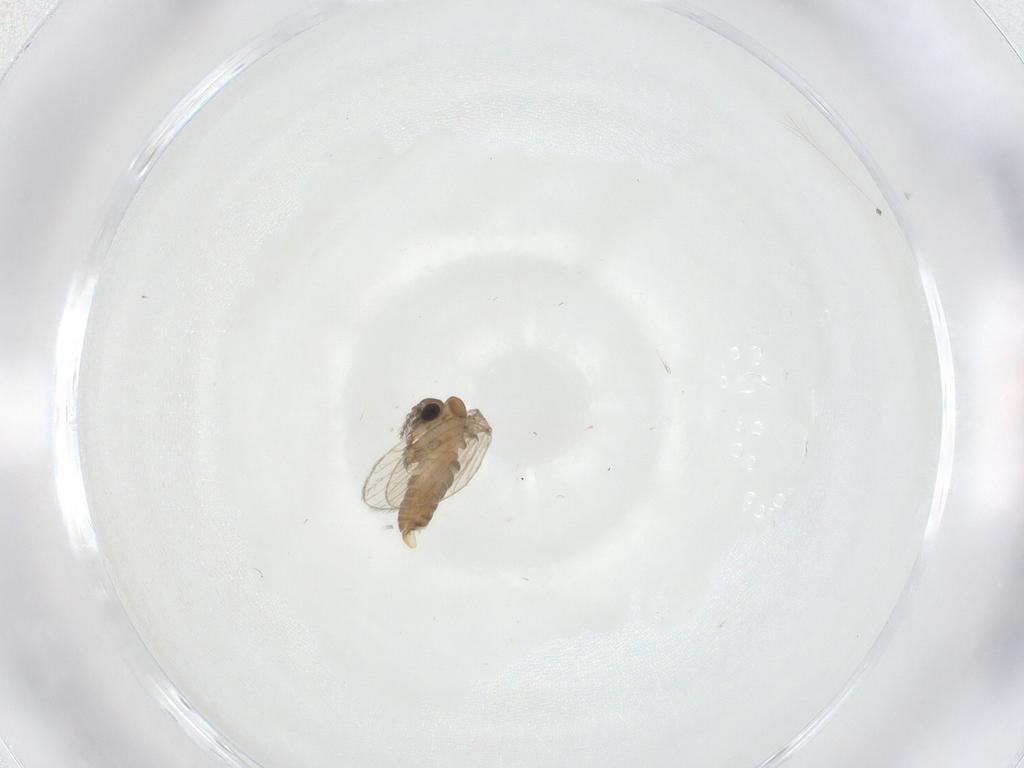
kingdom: Animalia
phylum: Arthropoda
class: Insecta
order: Diptera
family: Psychodidae
